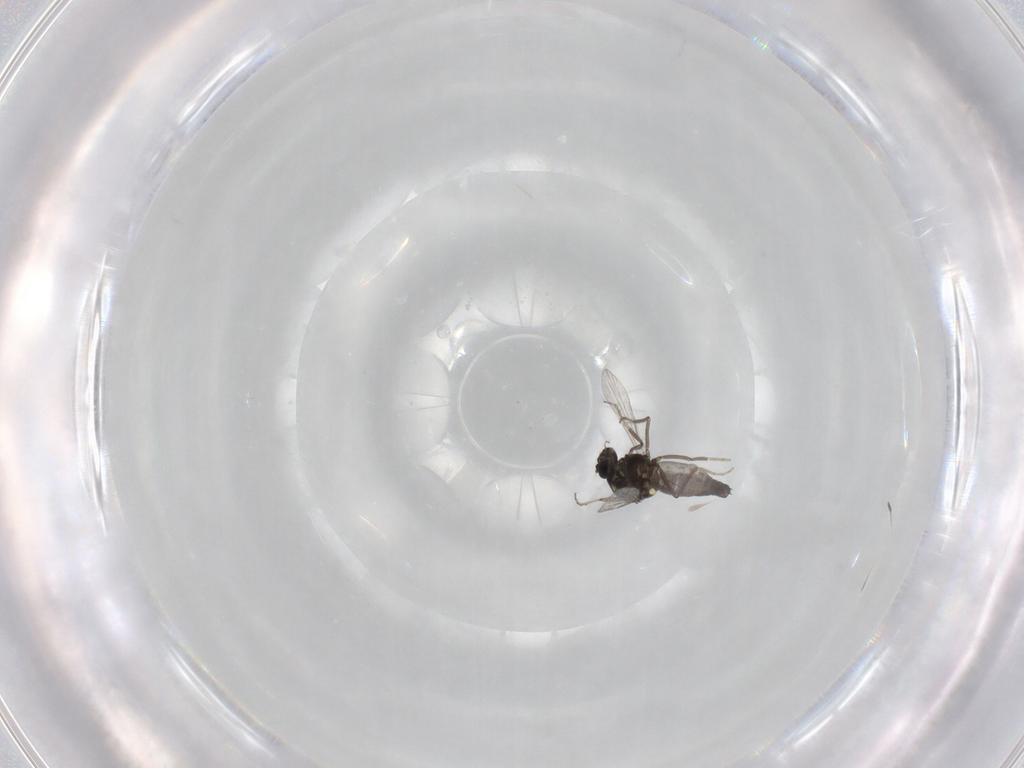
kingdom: Animalia
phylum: Arthropoda
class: Insecta
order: Diptera
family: Ceratopogonidae
